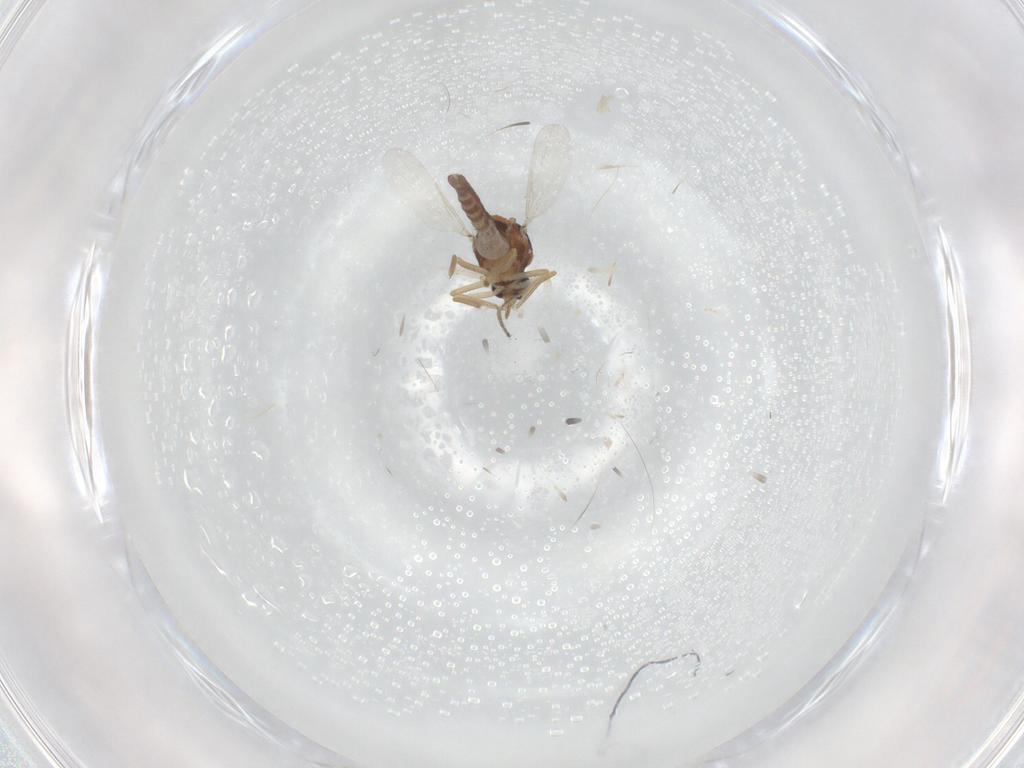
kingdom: Animalia
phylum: Arthropoda
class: Insecta
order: Diptera
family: Ceratopogonidae
